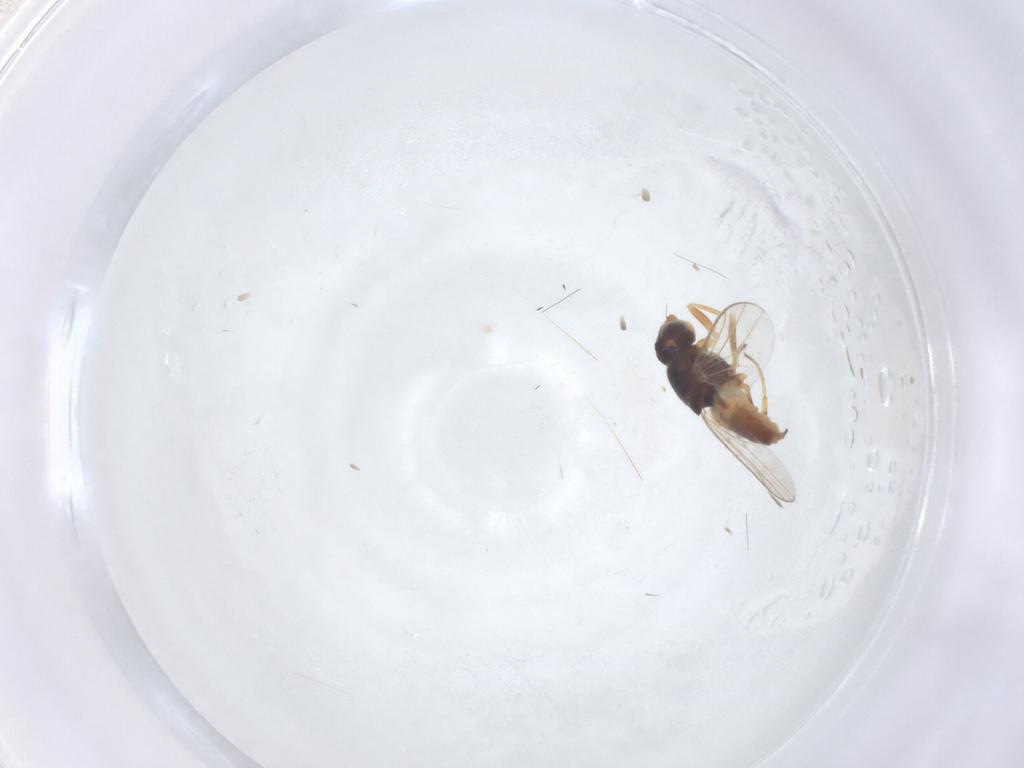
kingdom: Animalia
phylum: Arthropoda
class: Insecta
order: Diptera
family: Chloropidae
